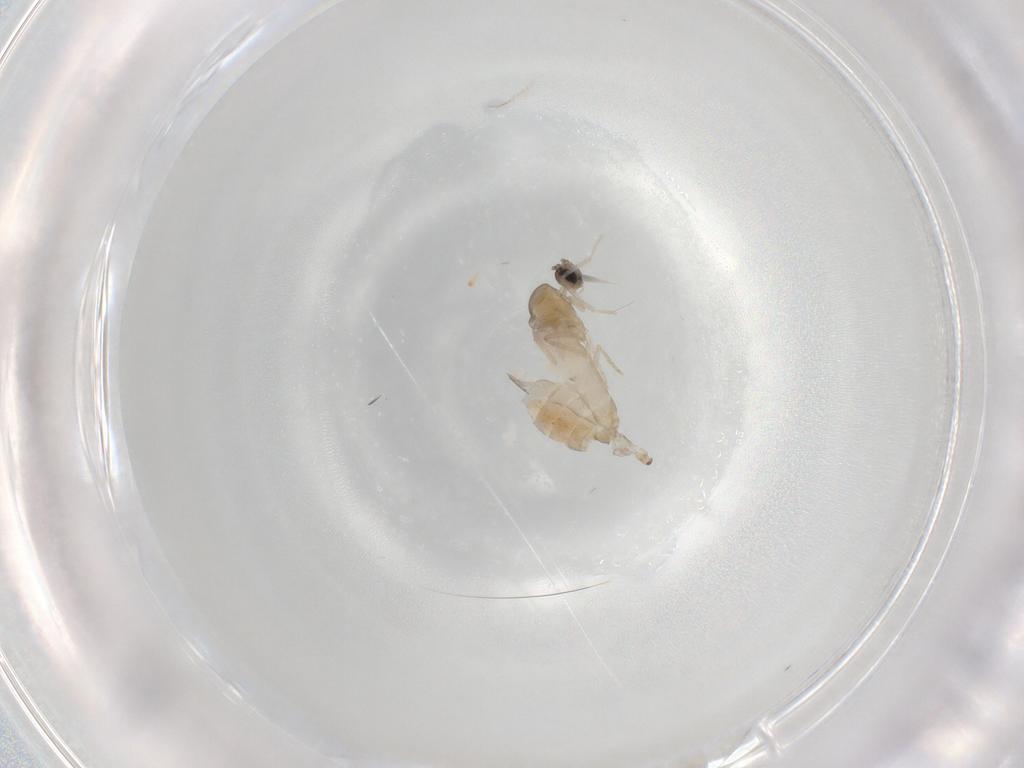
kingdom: Animalia
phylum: Arthropoda
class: Insecta
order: Diptera
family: Cecidomyiidae
